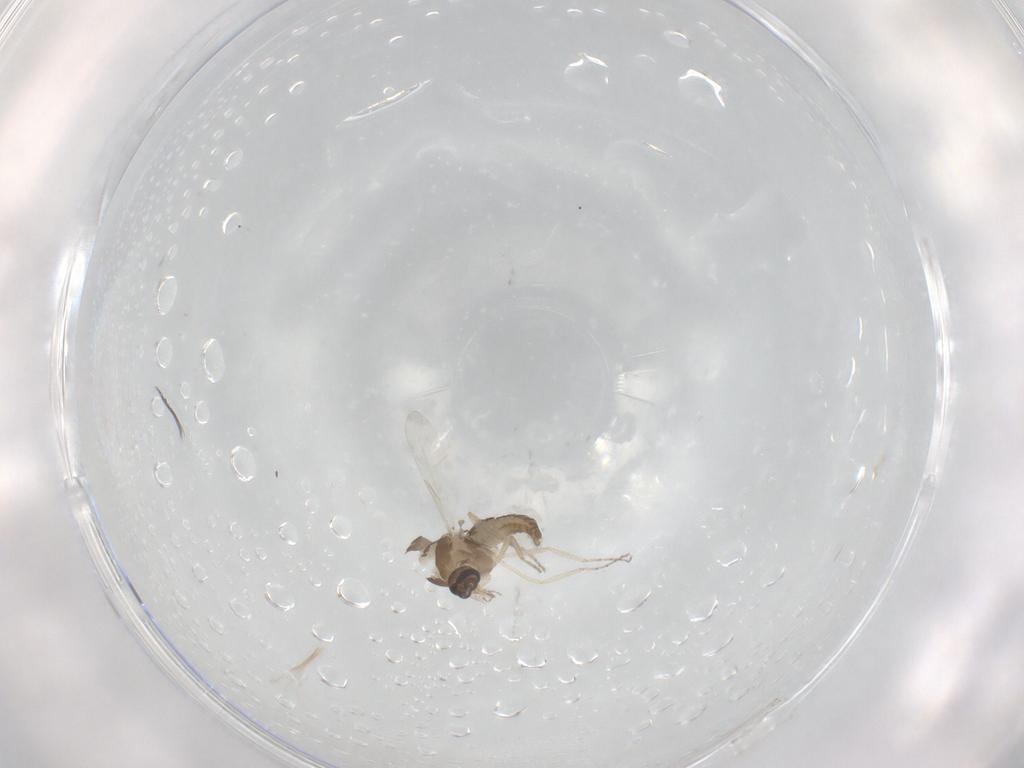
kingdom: Animalia
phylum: Arthropoda
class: Insecta
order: Diptera
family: Ceratopogonidae
